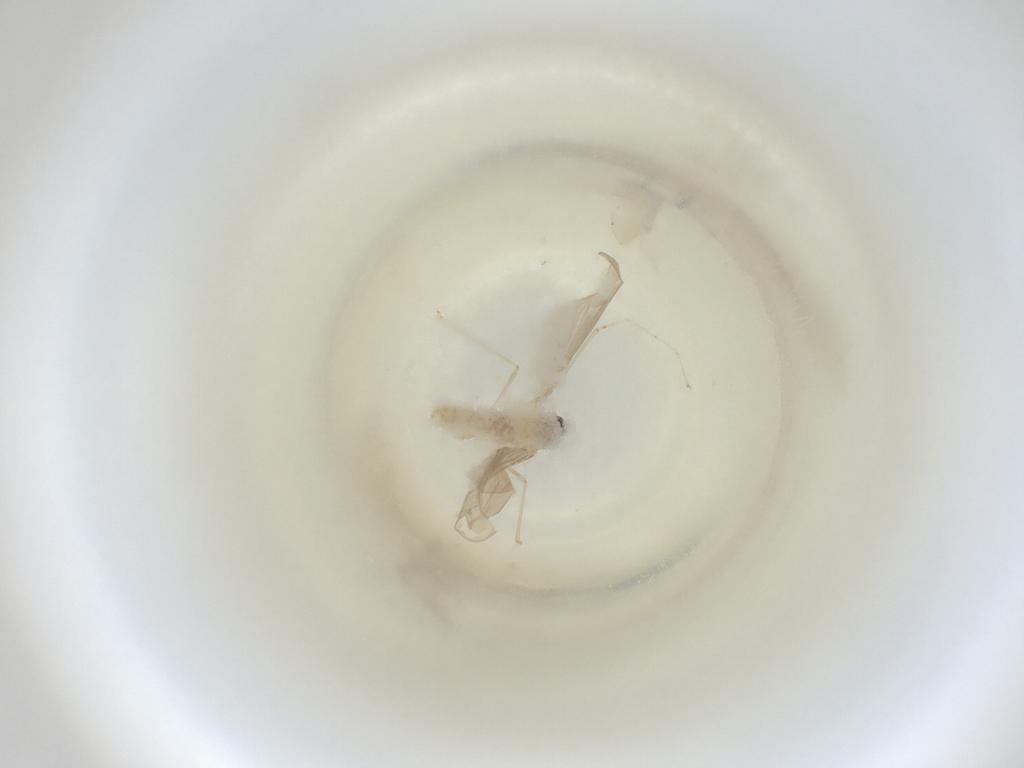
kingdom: Animalia
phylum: Arthropoda
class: Insecta
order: Diptera
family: Cecidomyiidae
